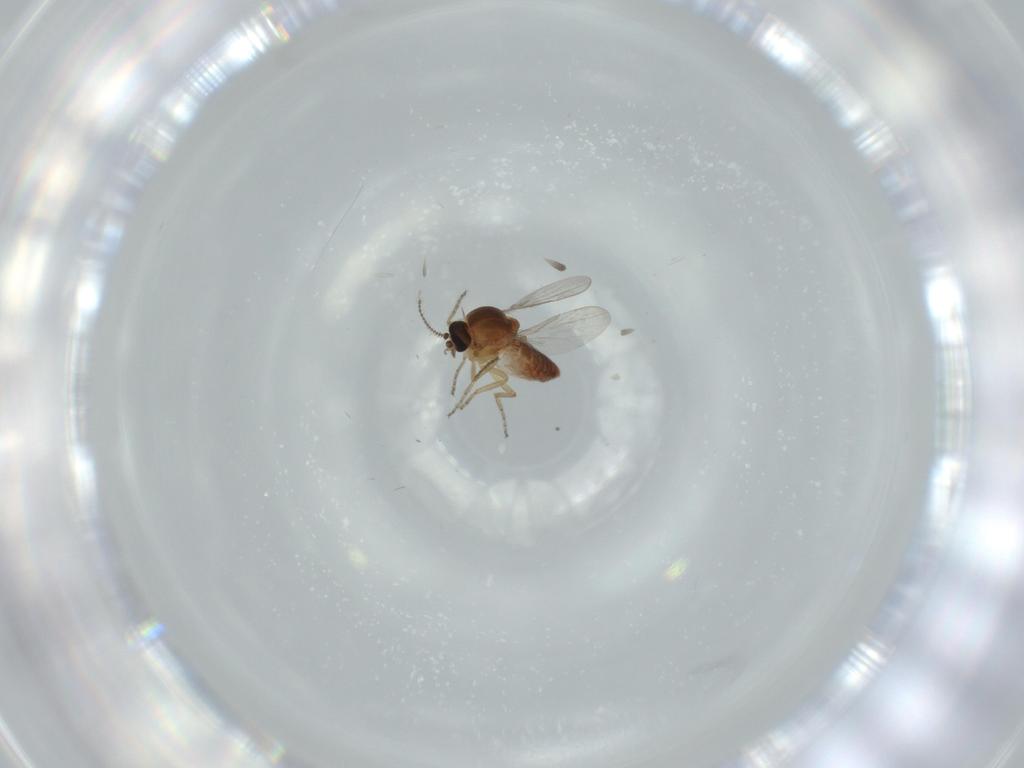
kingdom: Animalia
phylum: Arthropoda
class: Insecta
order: Diptera
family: Ceratopogonidae
